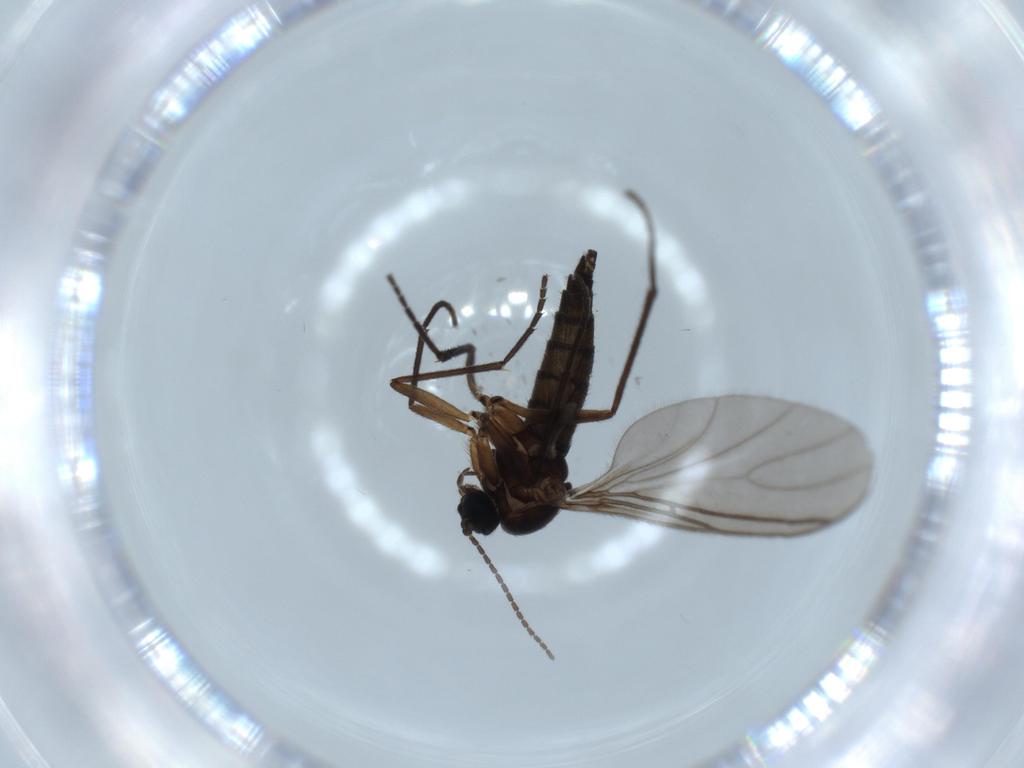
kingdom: Animalia
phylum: Arthropoda
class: Insecta
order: Diptera
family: Sciaridae
